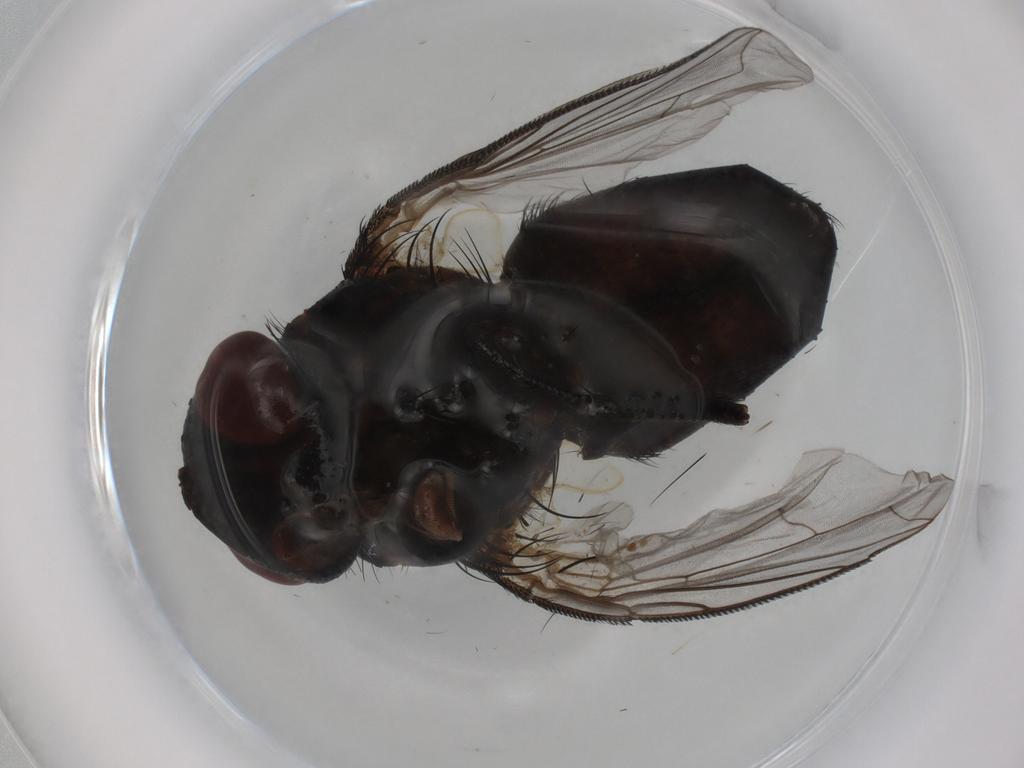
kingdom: Animalia
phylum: Arthropoda
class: Insecta
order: Diptera
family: Tachinidae
